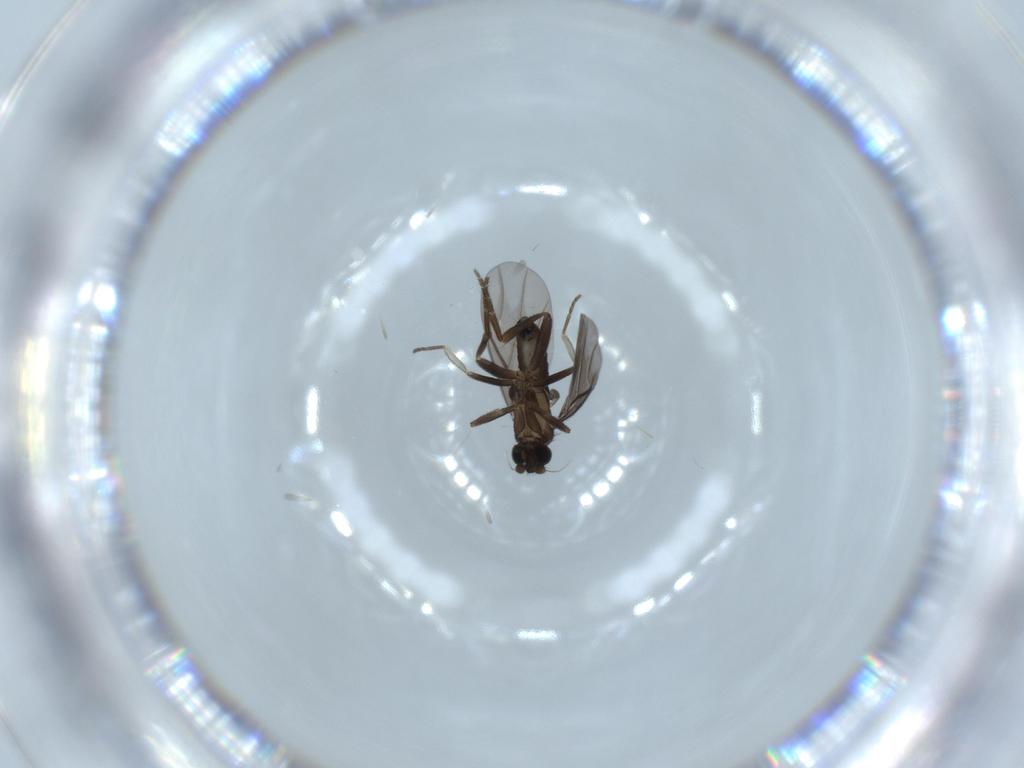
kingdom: Animalia
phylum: Arthropoda
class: Insecta
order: Diptera
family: Phoridae
